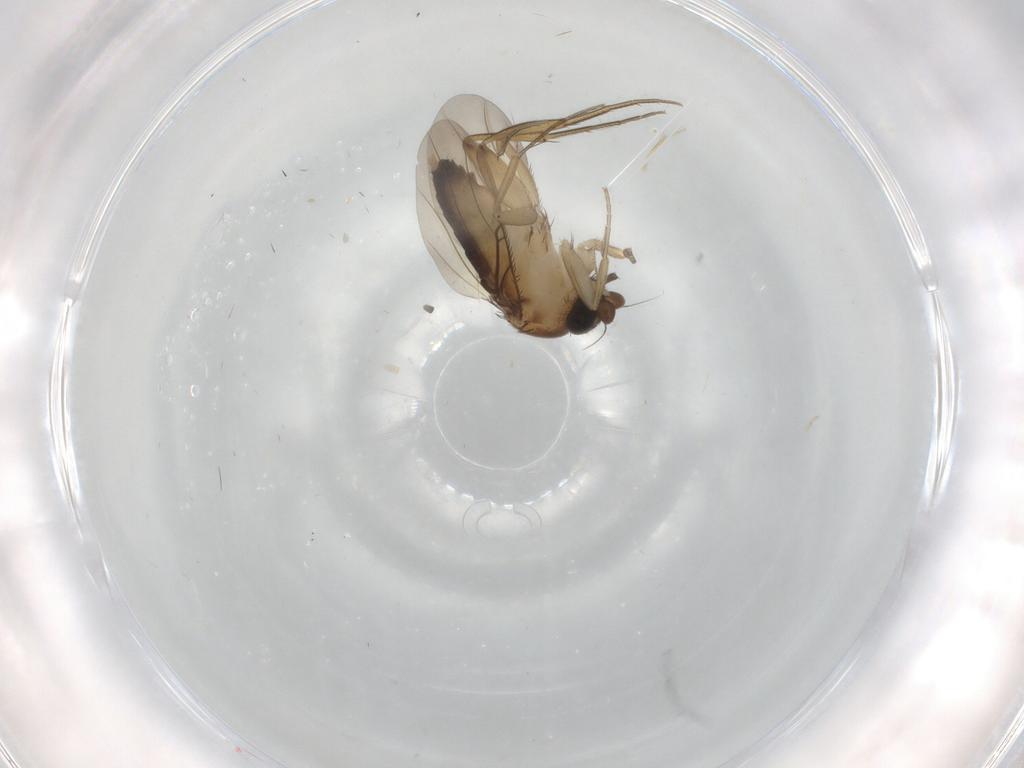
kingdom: Animalia
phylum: Arthropoda
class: Insecta
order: Diptera
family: Phoridae
